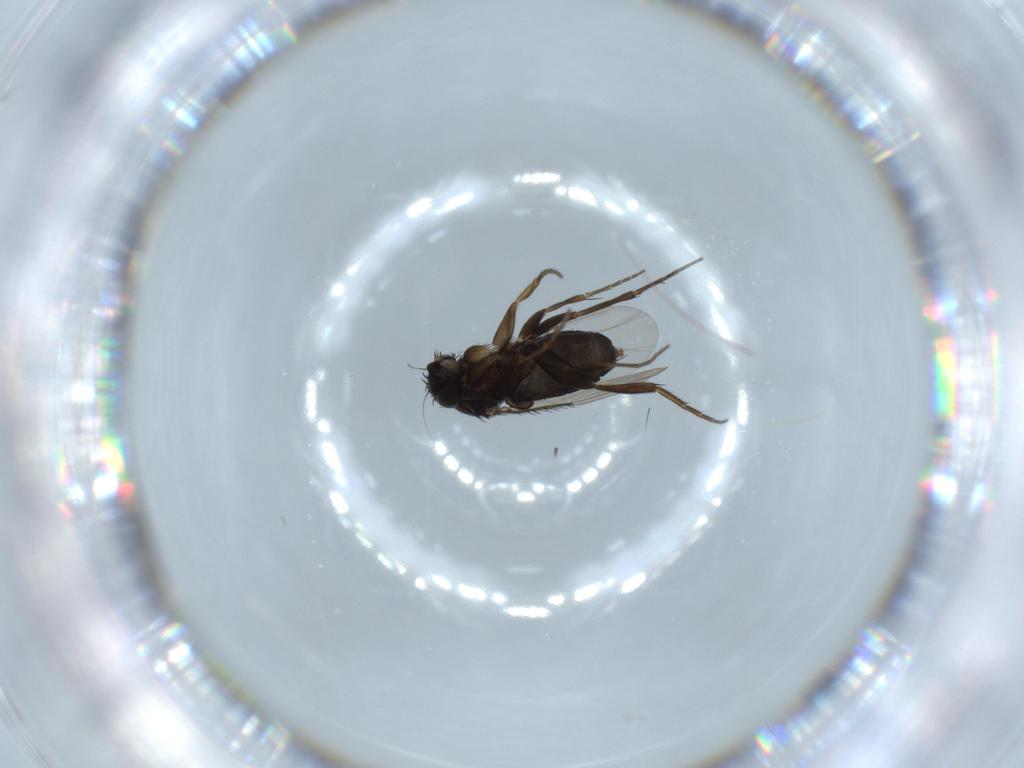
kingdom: Animalia
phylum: Arthropoda
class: Insecta
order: Diptera
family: Phoridae
